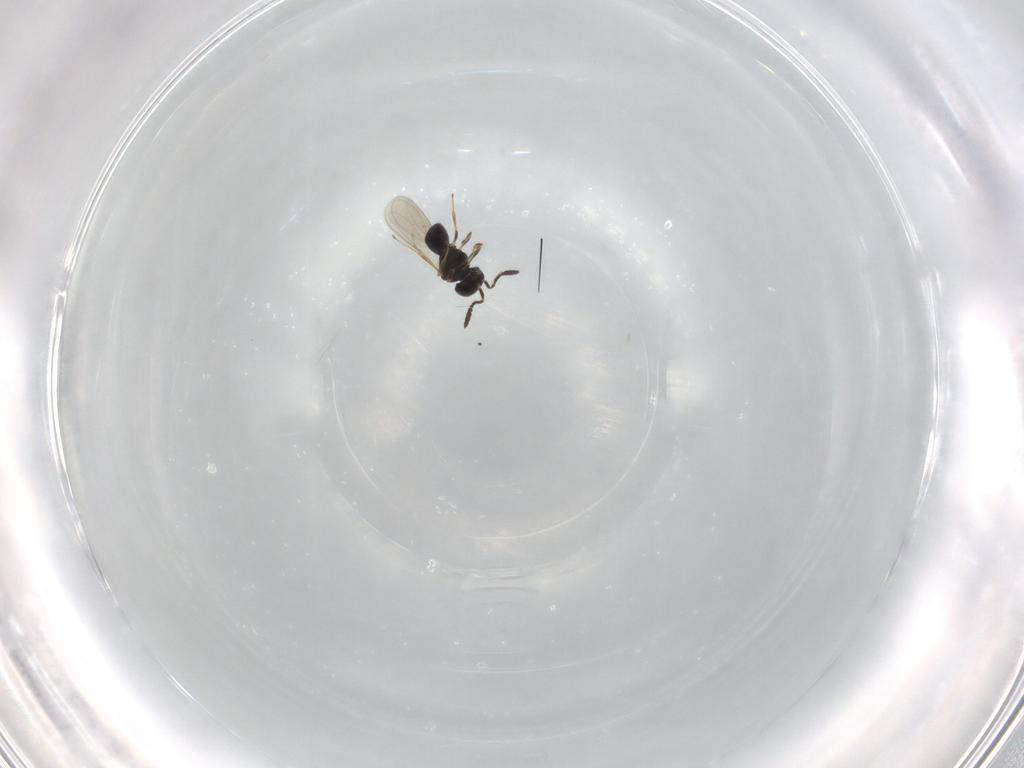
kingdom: Animalia
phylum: Arthropoda
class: Insecta
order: Hymenoptera
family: Scelionidae
